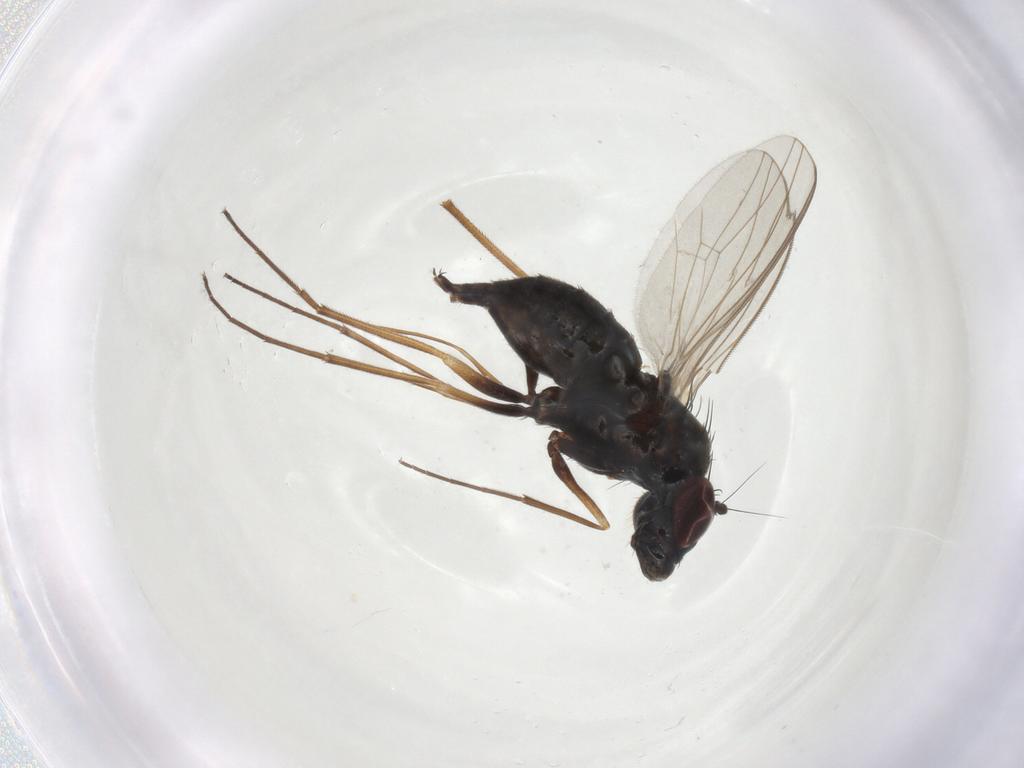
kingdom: Animalia
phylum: Arthropoda
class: Insecta
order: Diptera
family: Dolichopodidae
